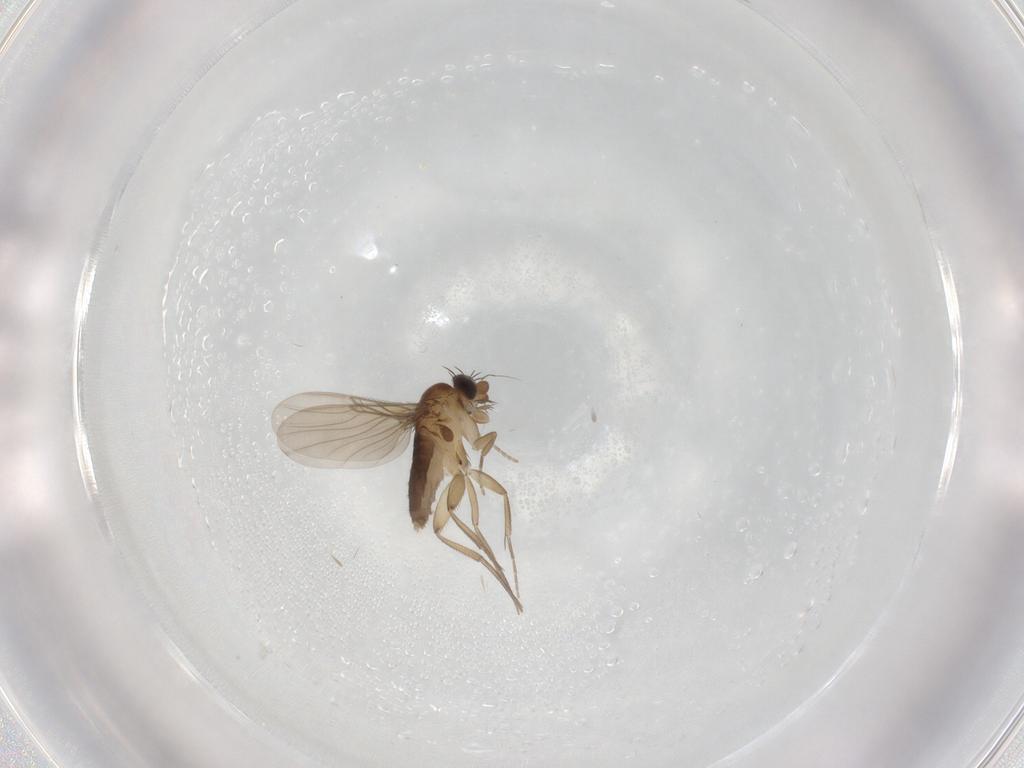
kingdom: Animalia
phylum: Arthropoda
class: Insecta
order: Diptera
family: Phoridae
